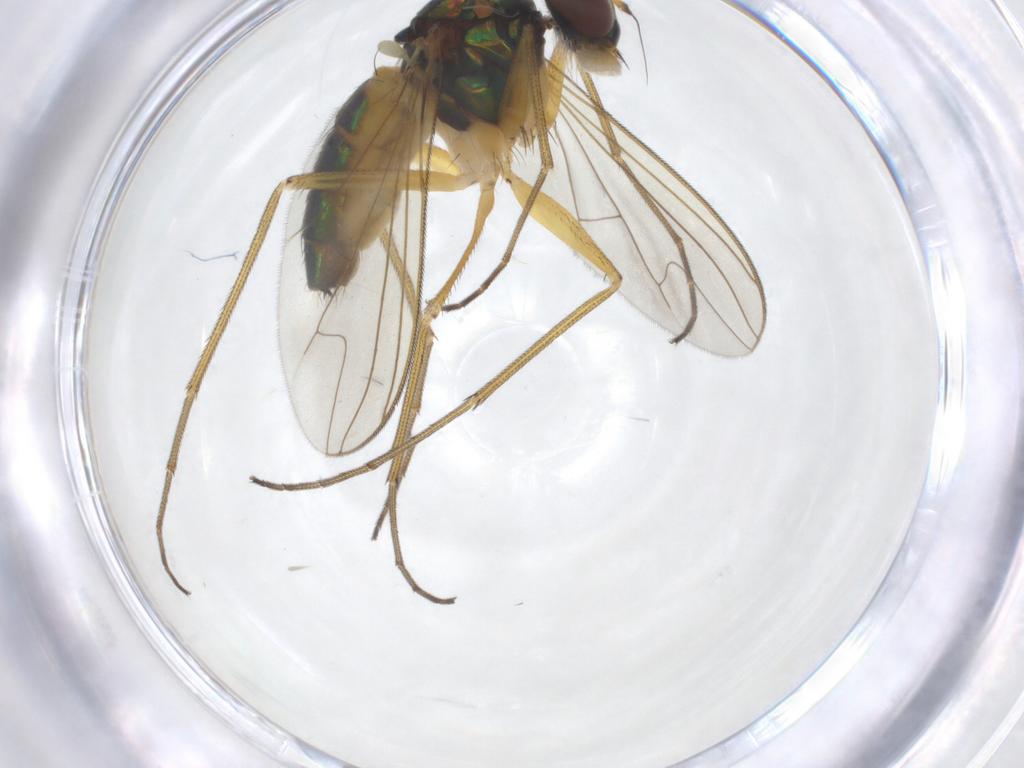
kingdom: Animalia
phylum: Arthropoda
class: Insecta
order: Diptera
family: Dolichopodidae
